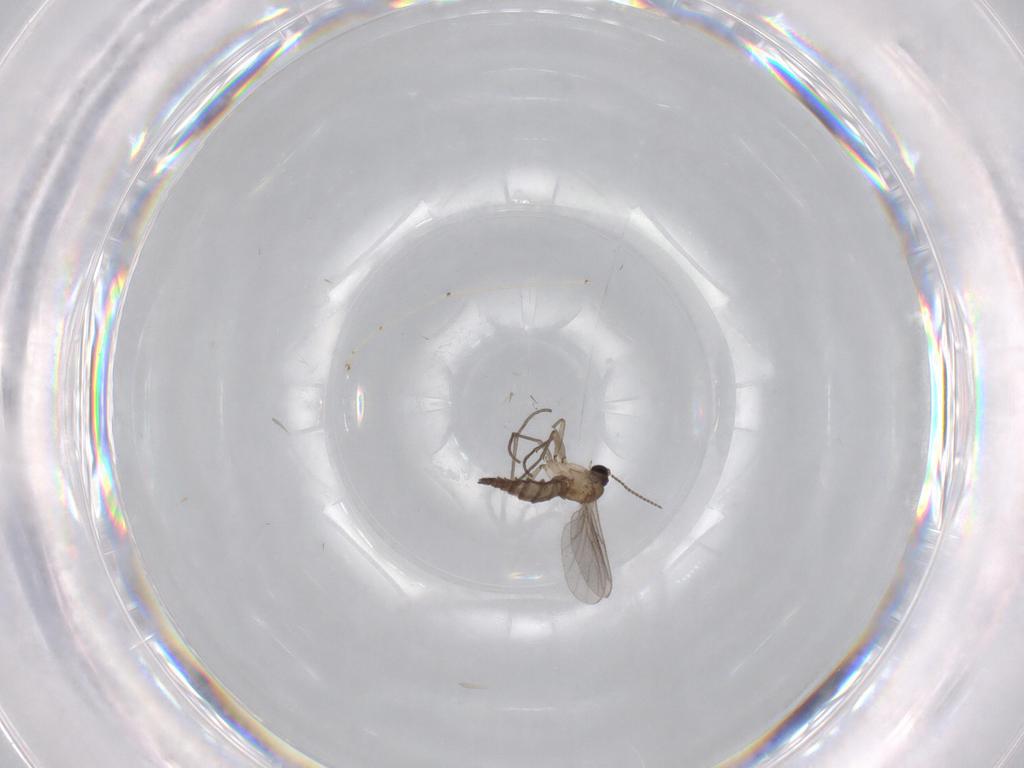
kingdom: Animalia
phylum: Arthropoda
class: Insecta
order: Diptera
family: Sciaridae
